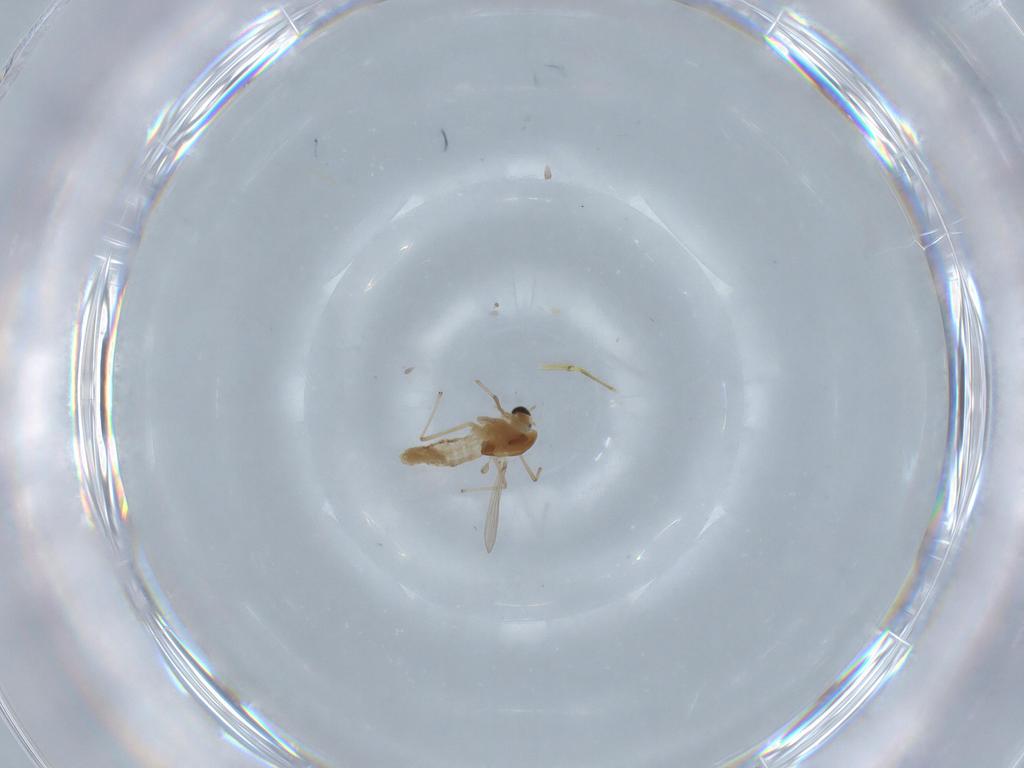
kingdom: Animalia
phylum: Arthropoda
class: Insecta
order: Diptera
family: Chironomidae
